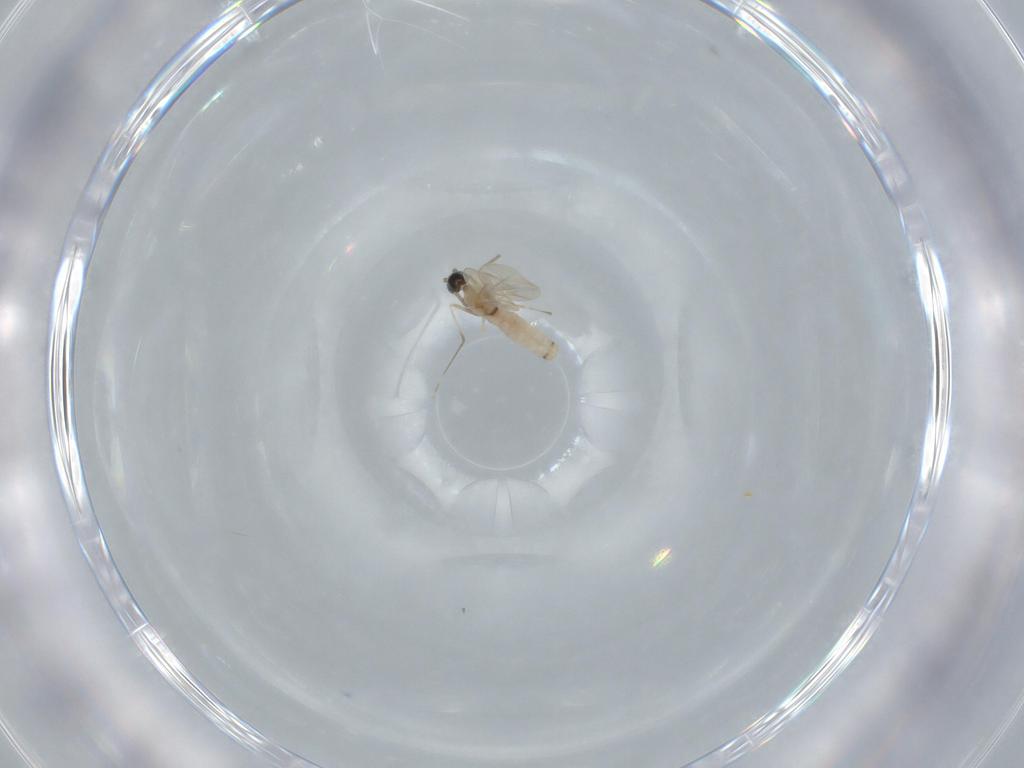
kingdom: Animalia
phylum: Arthropoda
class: Insecta
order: Diptera
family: Cecidomyiidae
